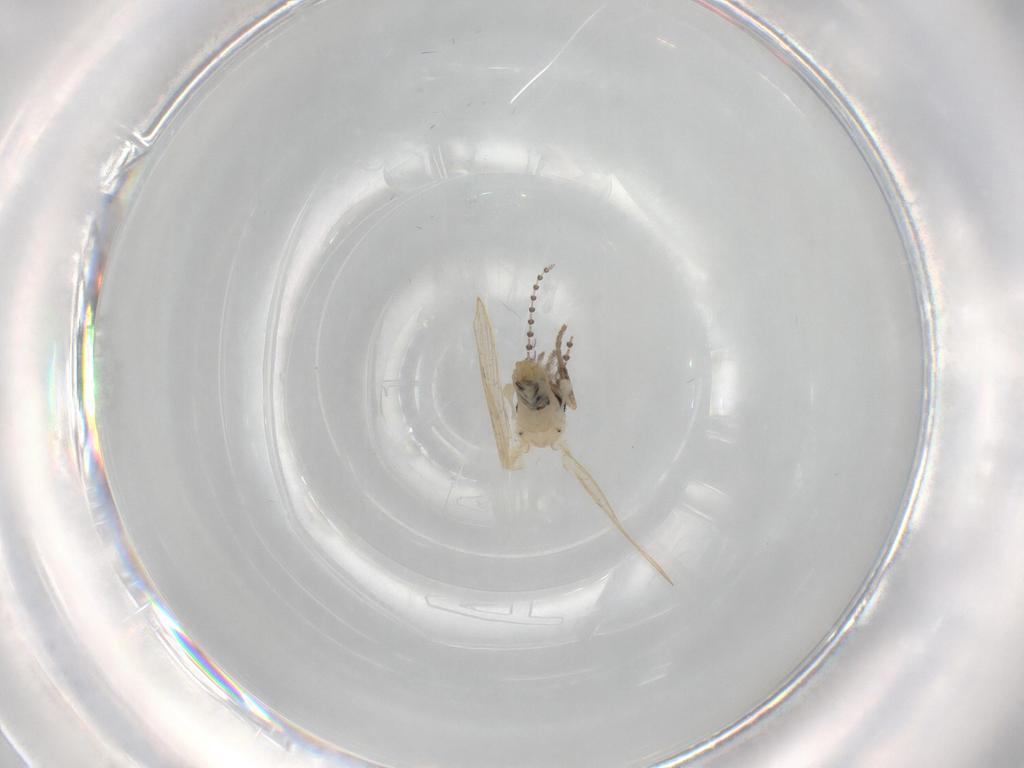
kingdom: Animalia
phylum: Arthropoda
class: Insecta
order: Diptera
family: Psychodidae
